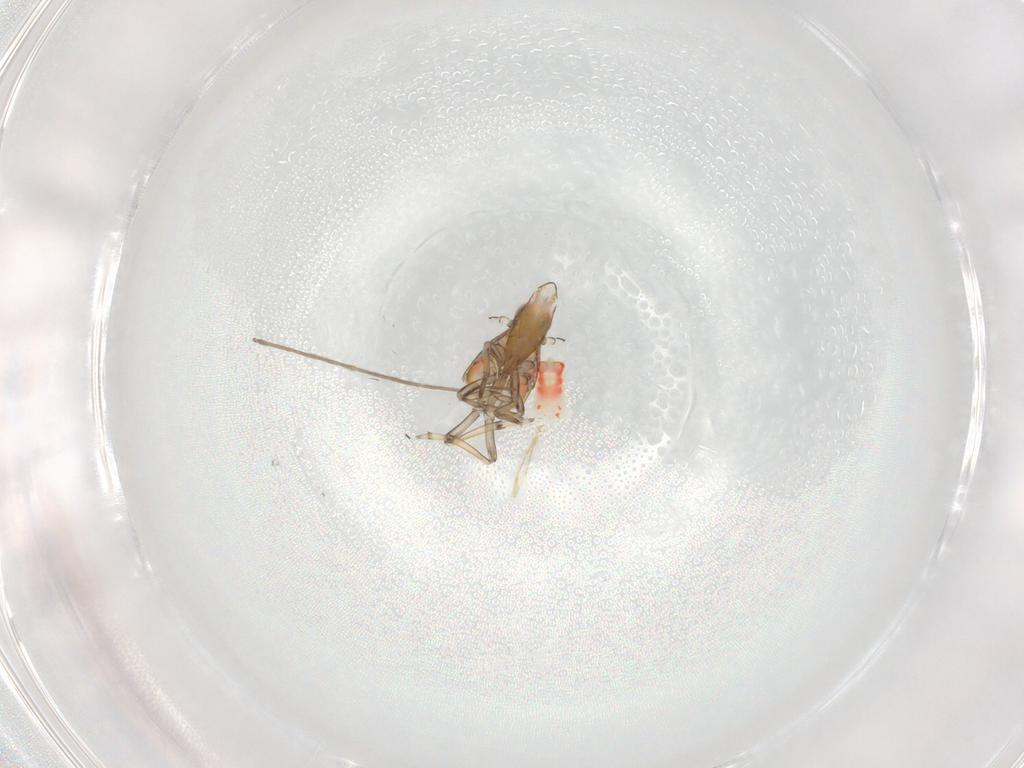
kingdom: Animalia
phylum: Arthropoda
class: Insecta
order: Hemiptera
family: Fulgoroidea_incertae_sedis
